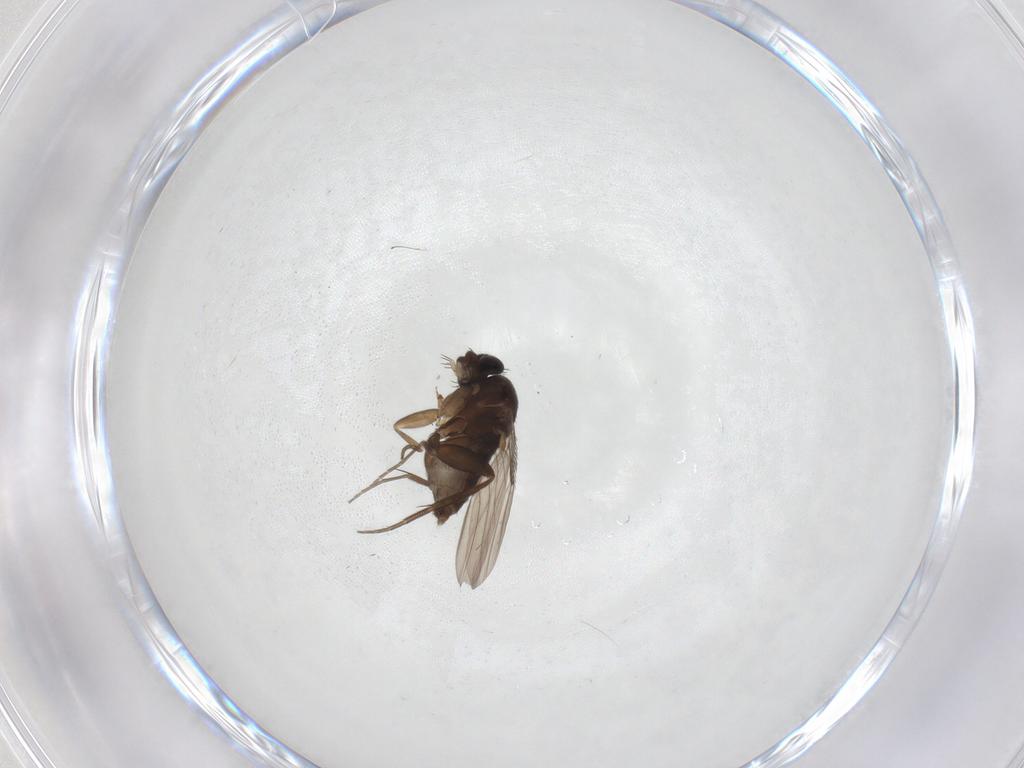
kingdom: Animalia
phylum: Arthropoda
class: Insecta
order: Diptera
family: Phoridae
